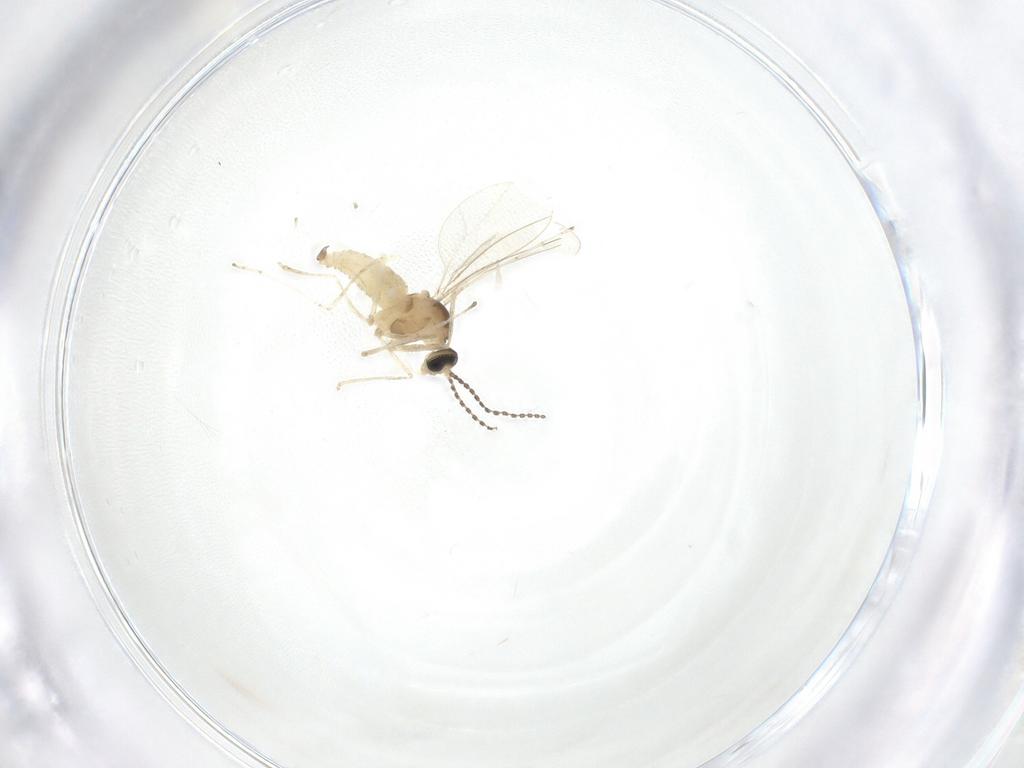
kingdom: Animalia
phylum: Arthropoda
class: Insecta
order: Diptera
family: Cecidomyiidae
